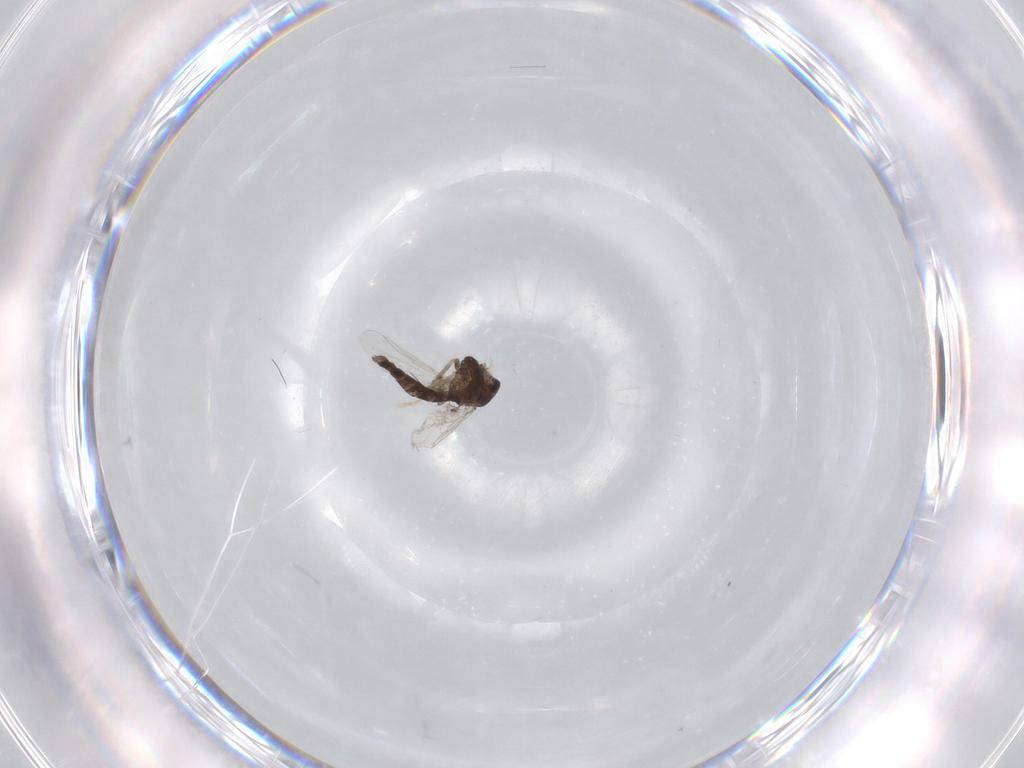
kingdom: Animalia
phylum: Arthropoda
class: Insecta
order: Diptera
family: Chironomidae
